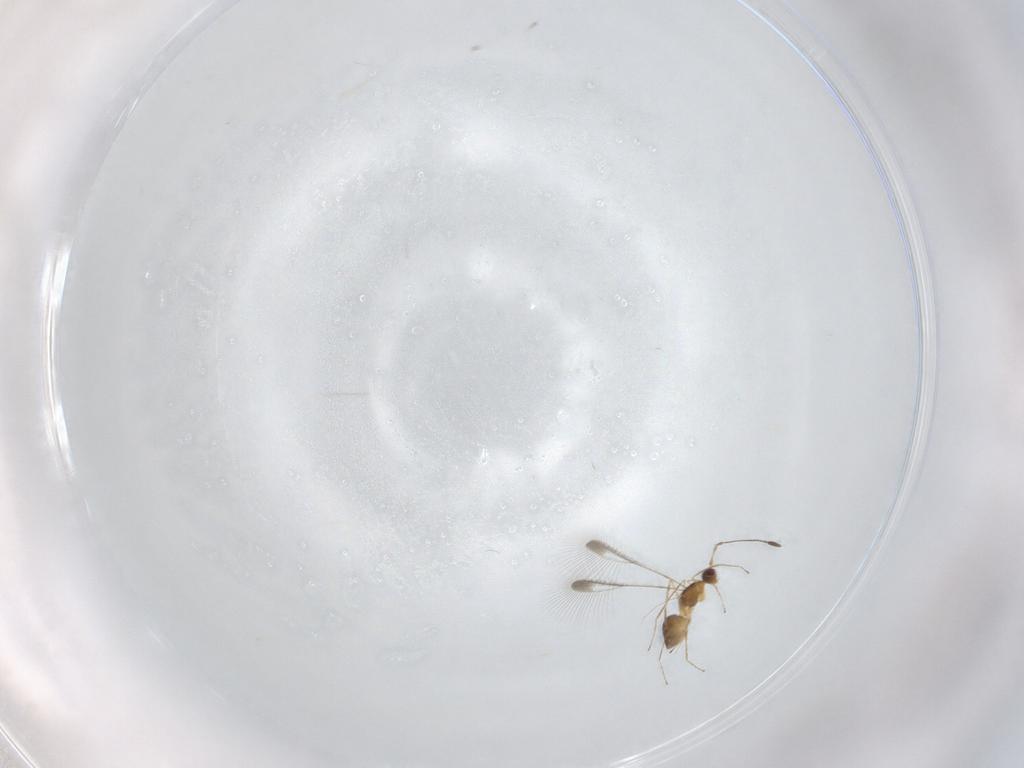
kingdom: Animalia
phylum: Arthropoda
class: Insecta
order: Hymenoptera
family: Mymaridae
